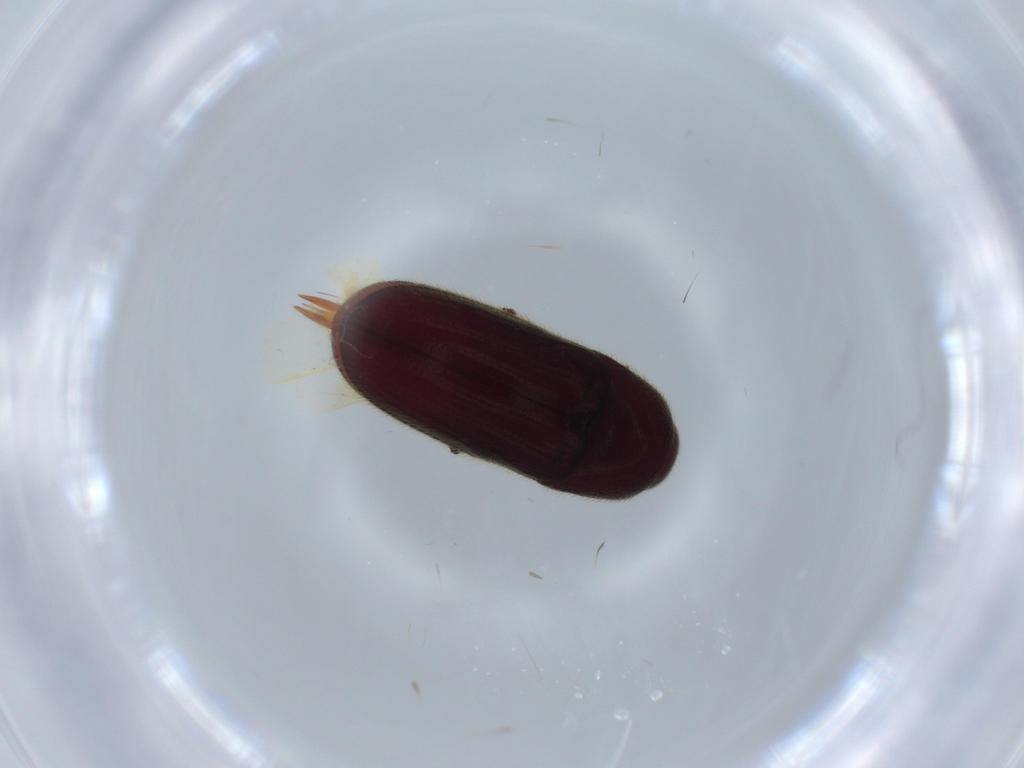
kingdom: Animalia
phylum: Arthropoda
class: Insecta
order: Coleoptera
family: Throscidae
